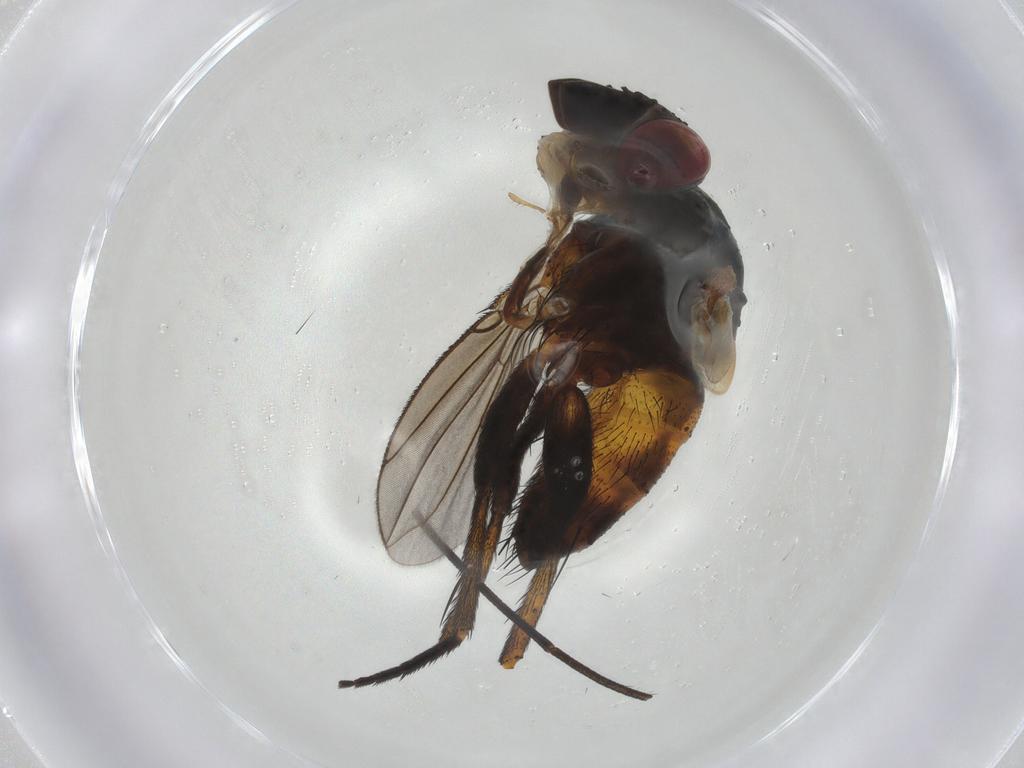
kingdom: Animalia
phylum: Arthropoda
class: Insecta
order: Diptera
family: Tachinidae
